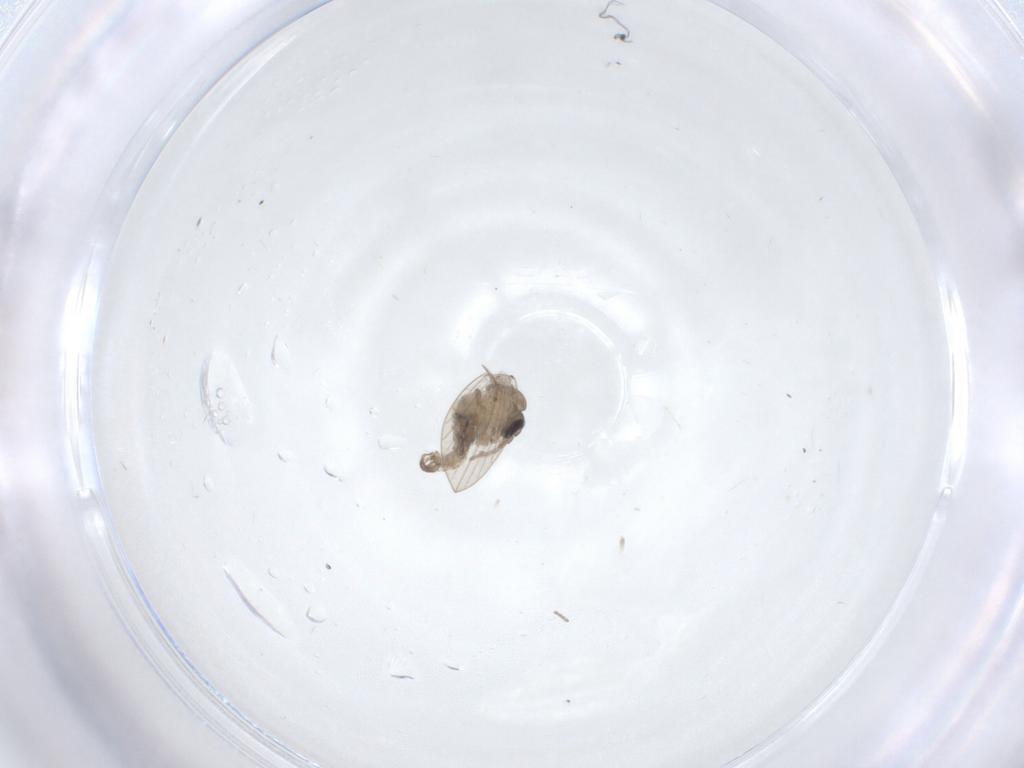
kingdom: Animalia
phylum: Arthropoda
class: Insecta
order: Diptera
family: Psychodidae
